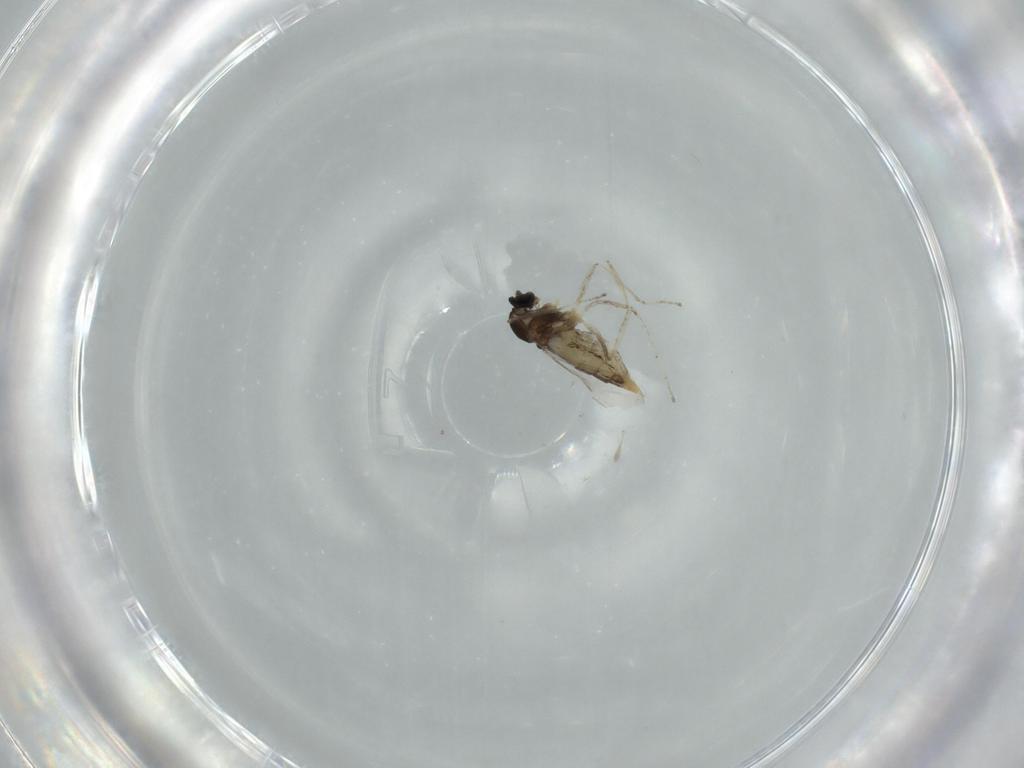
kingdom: Animalia
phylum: Arthropoda
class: Insecta
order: Diptera
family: Cecidomyiidae
